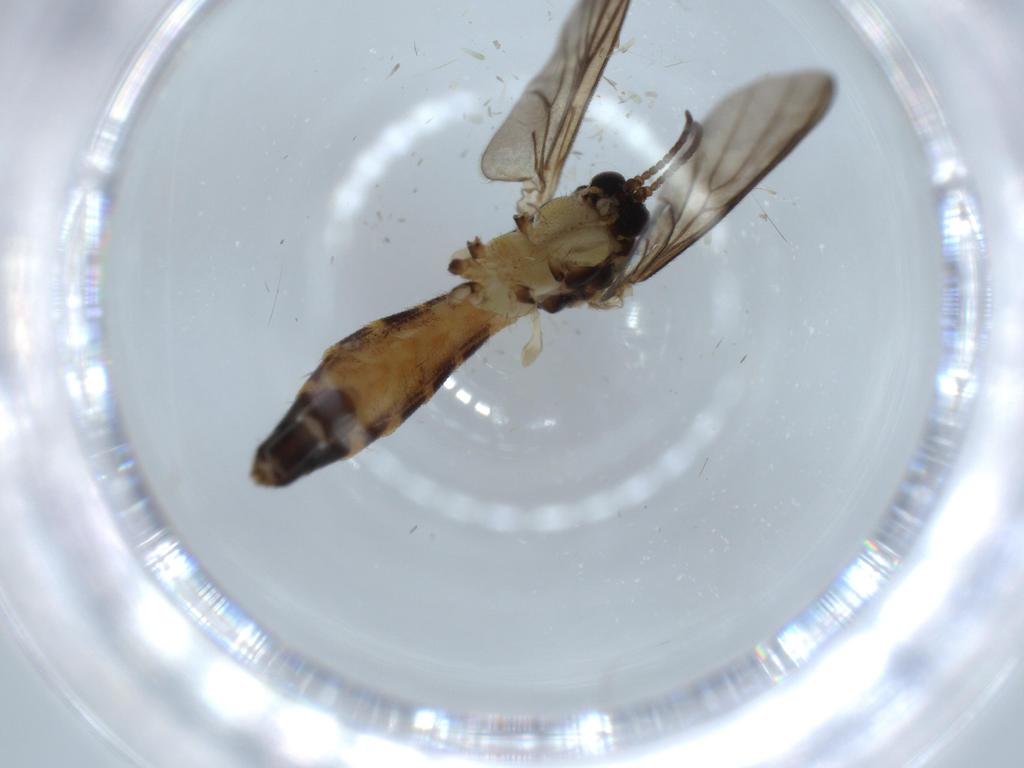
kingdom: Animalia
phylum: Arthropoda
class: Insecta
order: Diptera
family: Mycetophilidae
